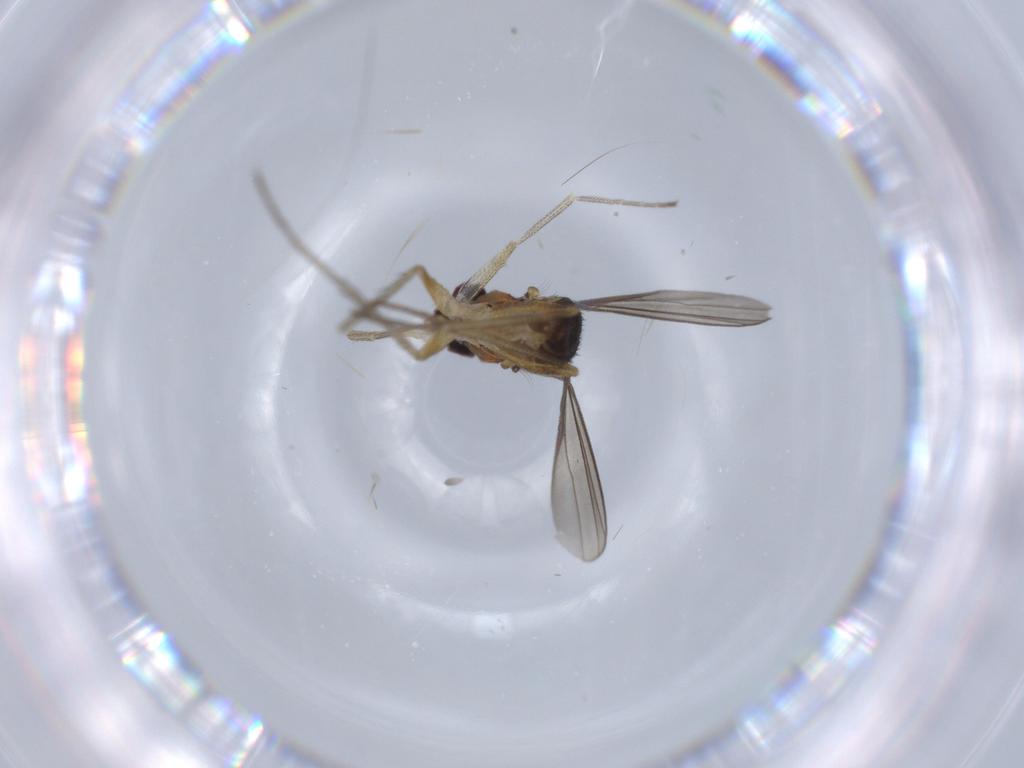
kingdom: Animalia
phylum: Arthropoda
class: Insecta
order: Diptera
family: Dolichopodidae
